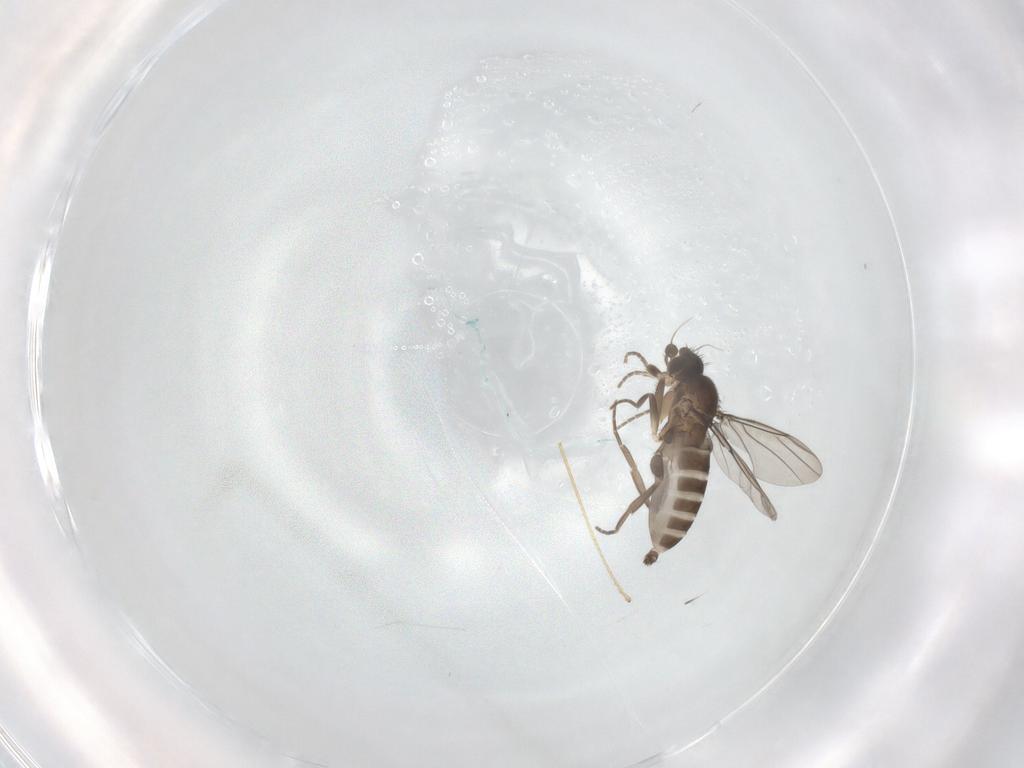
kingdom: Animalia
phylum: Arthropoda
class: Insecta
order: Diptera
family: Limoniidae
